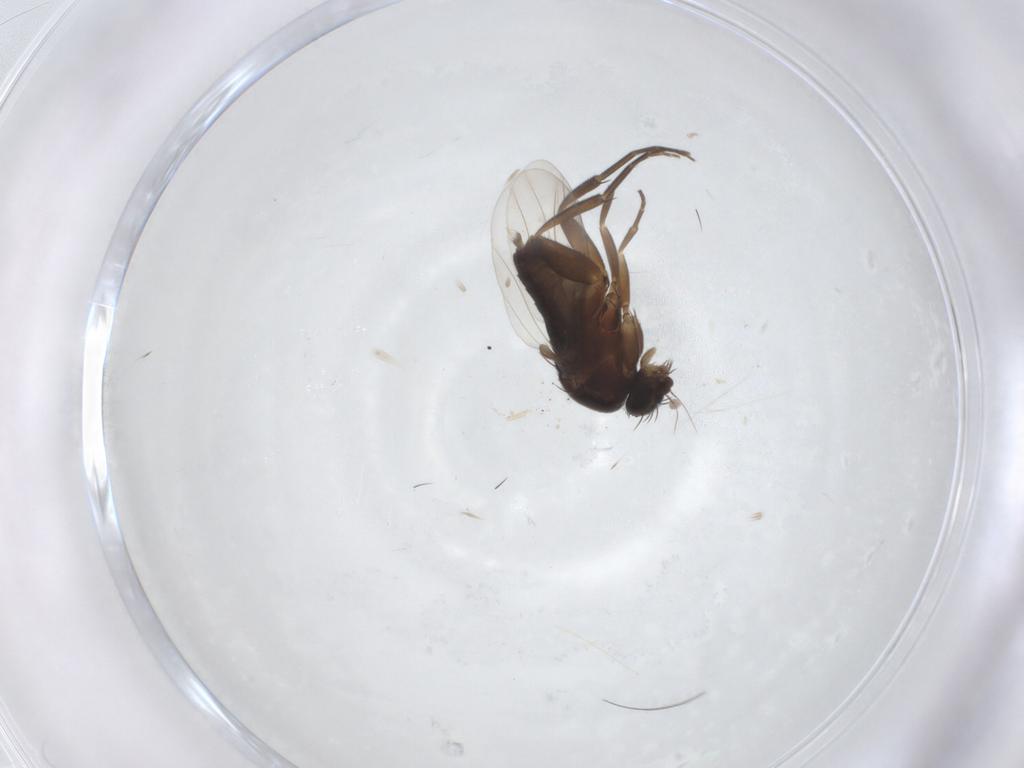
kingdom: Animalia
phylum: Arthropoda
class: Insecta
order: Diptera
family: Phoridae
